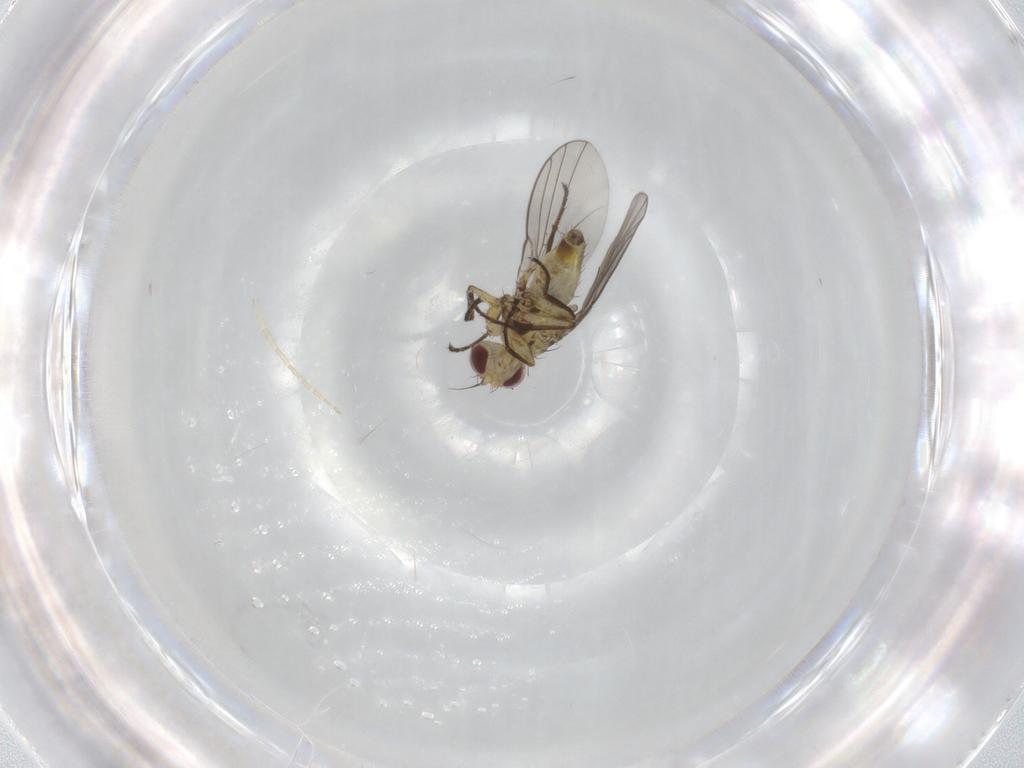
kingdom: Animalia
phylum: Arthropoda
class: Insecta
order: Diptera
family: Agromyzidae
